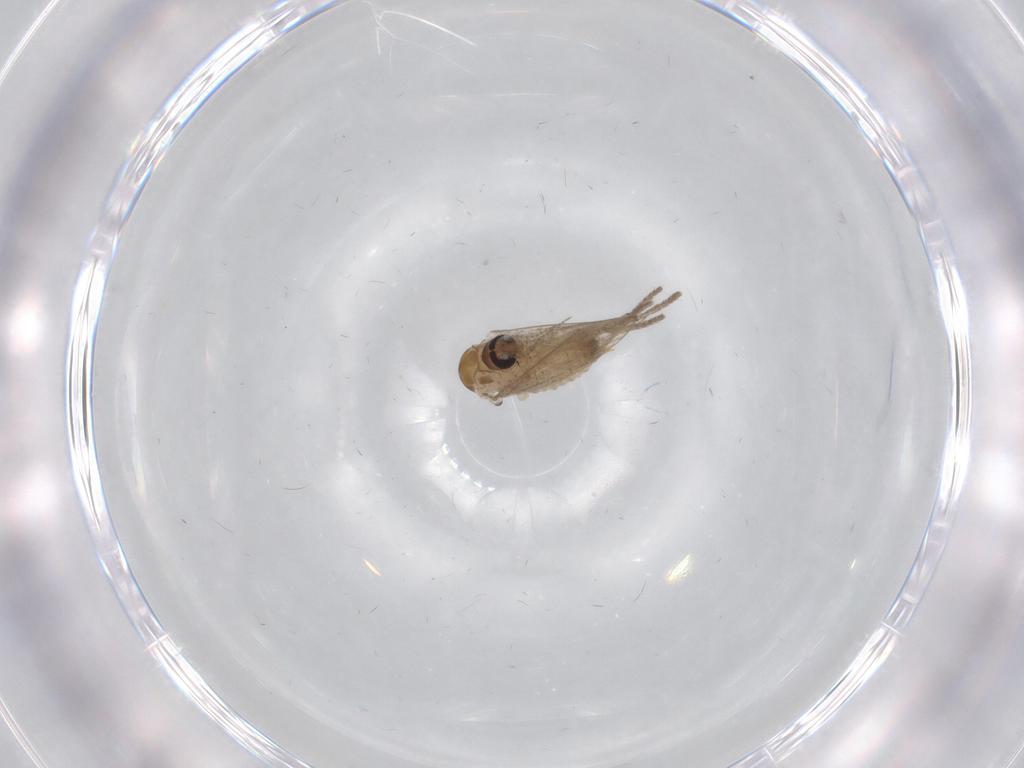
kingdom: Animalia
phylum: Arthropoda
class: Insecta
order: Diptera
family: Psychodidae
